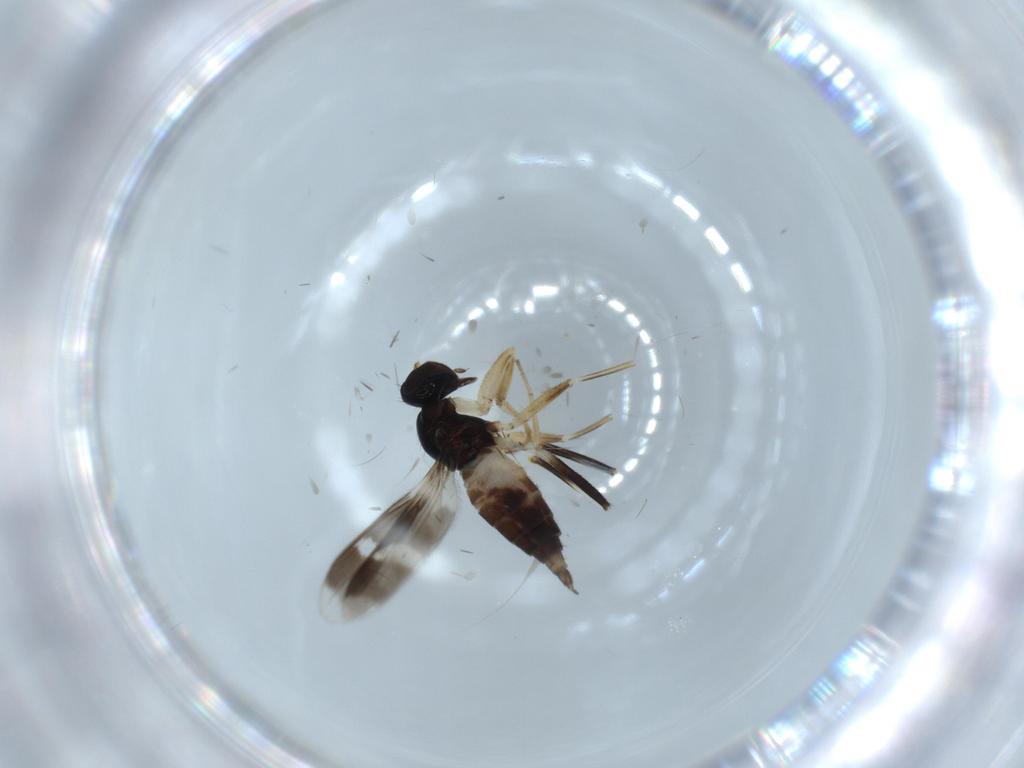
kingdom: Animalia
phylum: Arthropoda
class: Insecta
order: Diptera
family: Hybotidae
